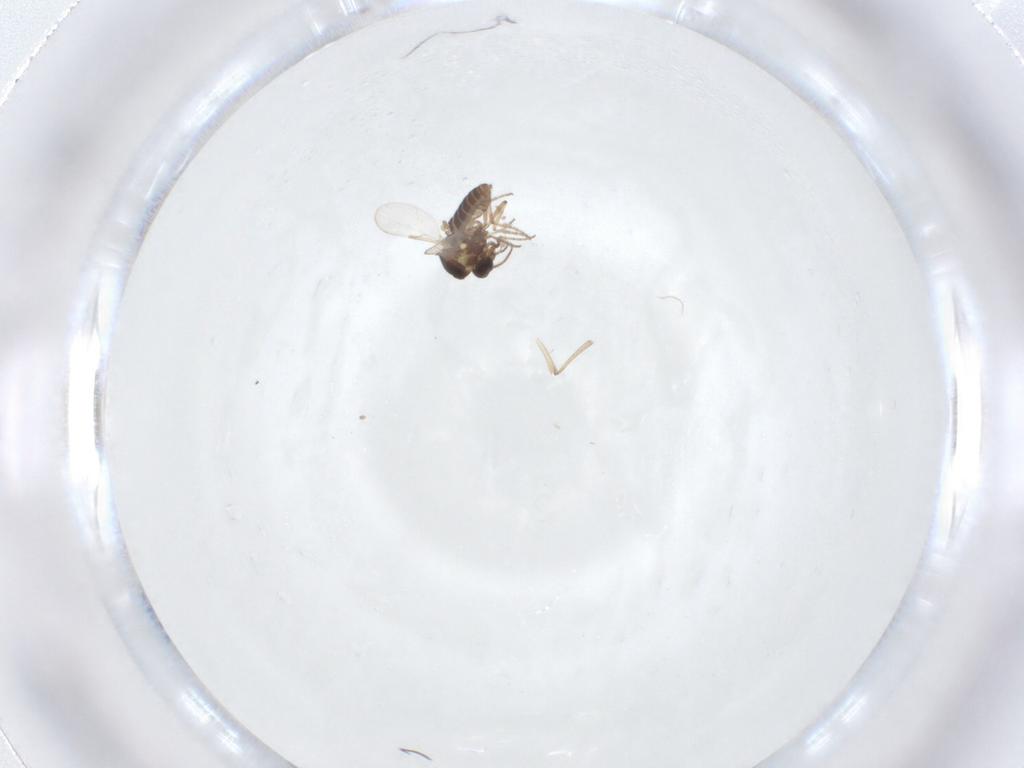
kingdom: Animalia
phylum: Arthropoda
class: Insecta
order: Diptera
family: Ceratopogonidae
